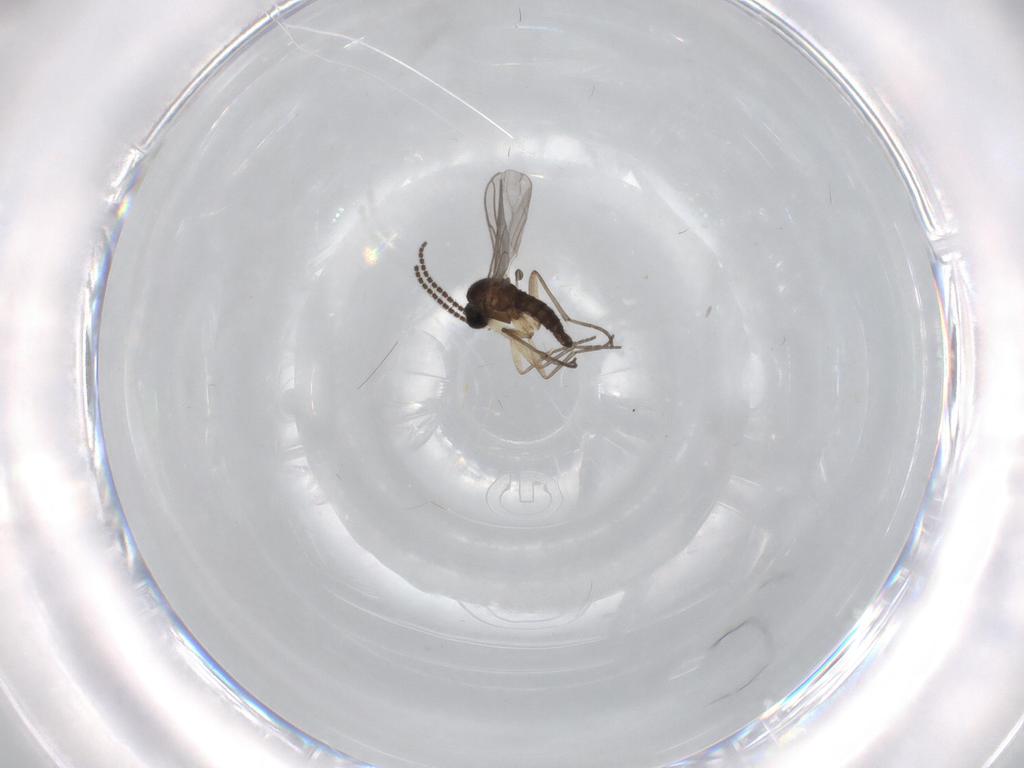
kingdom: Animalia
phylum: Arthropoda
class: Insecta
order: Diptera
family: Sciaridae
